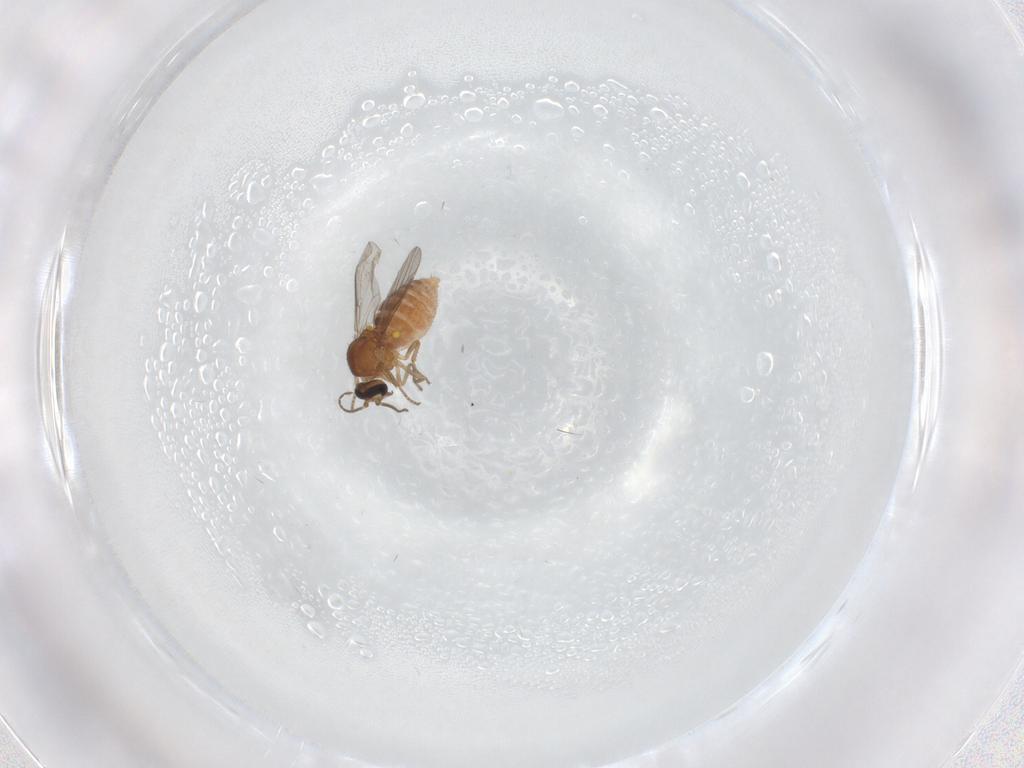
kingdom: Animalia
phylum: Arthropoda
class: Insecta
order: Diptera
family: Ceratopogonidae
